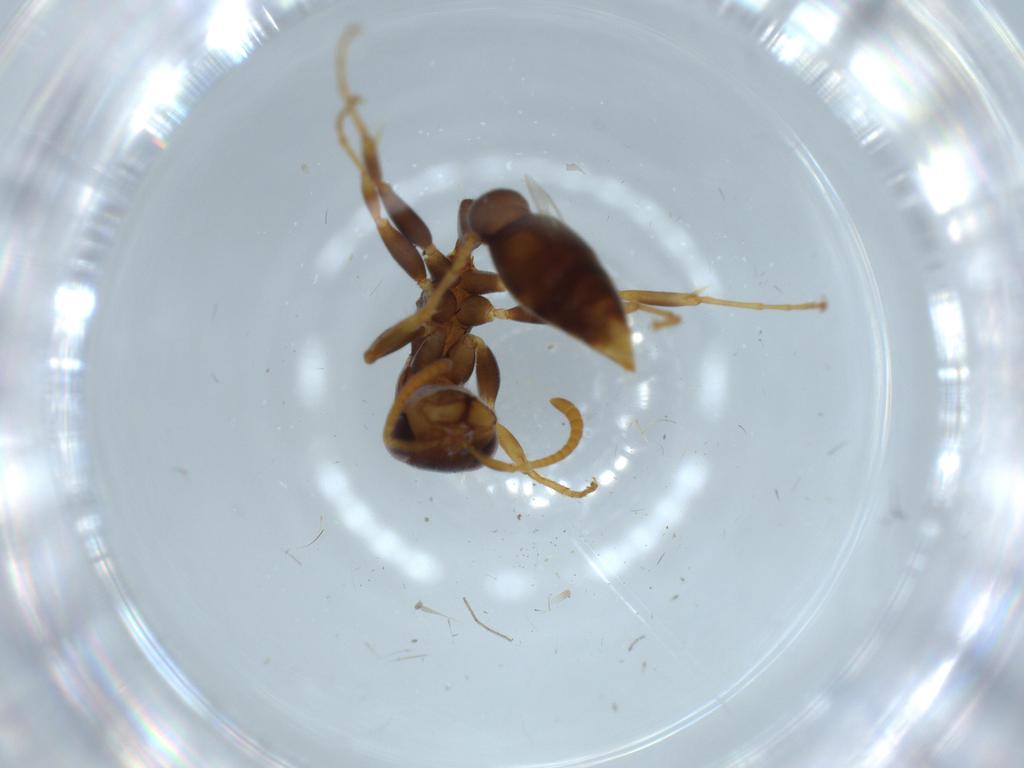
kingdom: Animalia
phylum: Arthropoda
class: Insecta
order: Hymenoptera
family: Formicidae
